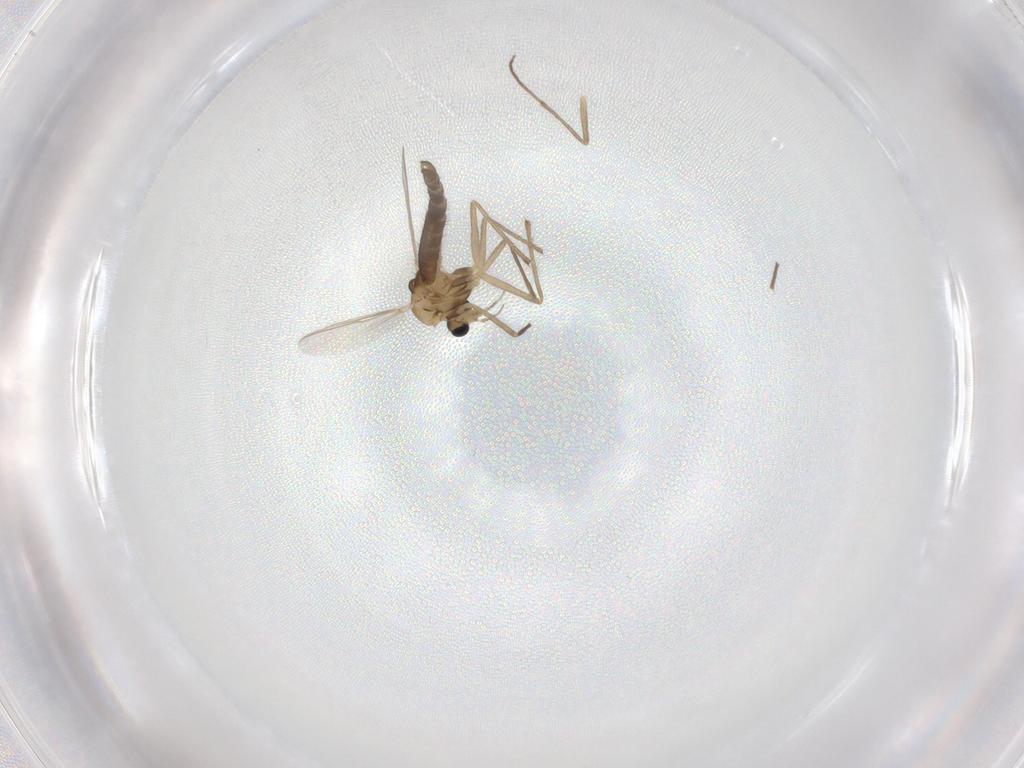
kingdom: Animalia
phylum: Arthropoda
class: Insecta
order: Diptera
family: Chironomidae
